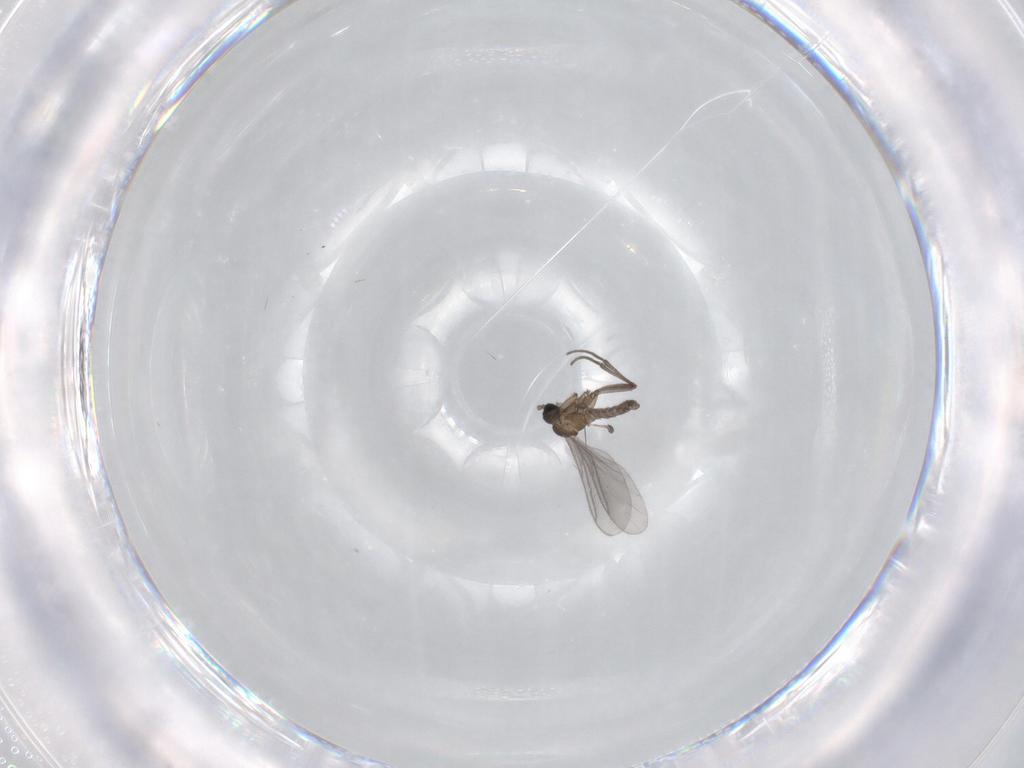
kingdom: Animalia
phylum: Arthropoda
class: Insecta
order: Diptera
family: Sciaridae
